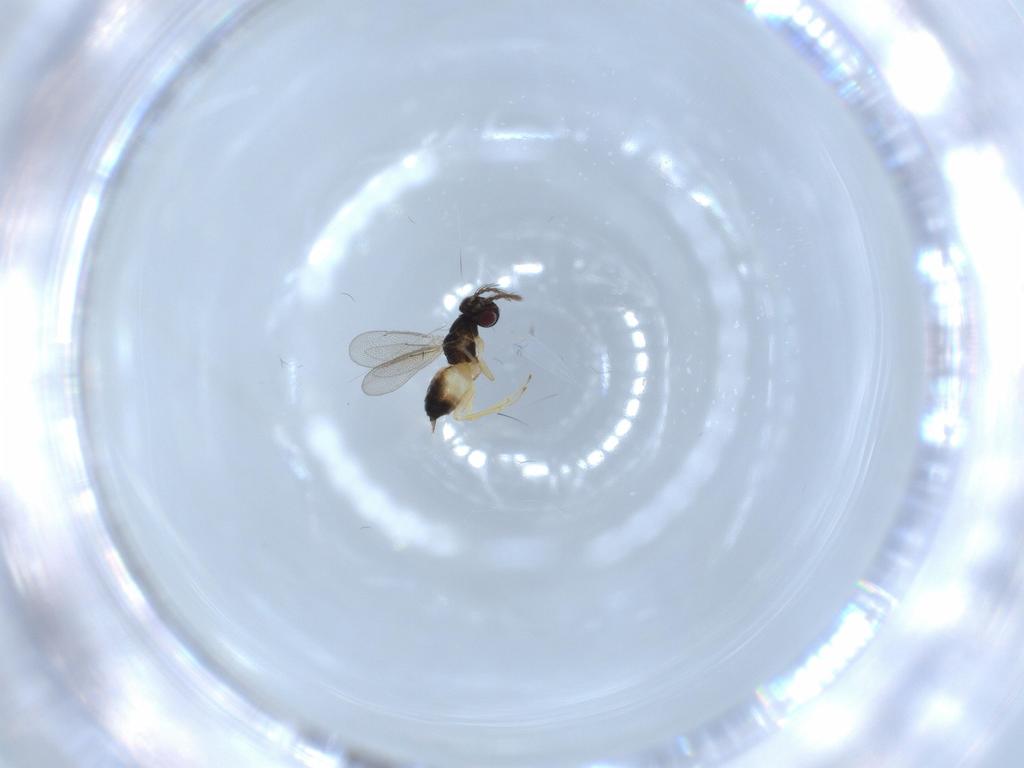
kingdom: Animalia
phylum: Arthropoda
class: Insecta
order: Hymenoptera
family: Eulophidae
